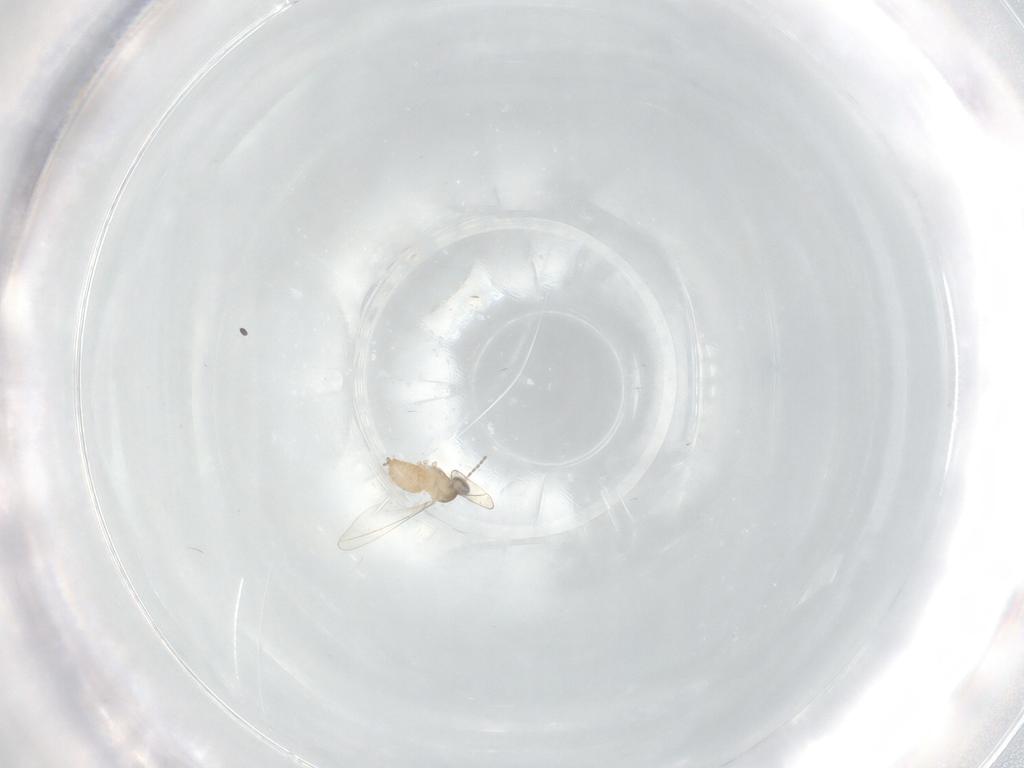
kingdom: Animalia
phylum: Arthropoda
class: Insecta
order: Diptera
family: Cecidomyiidae
